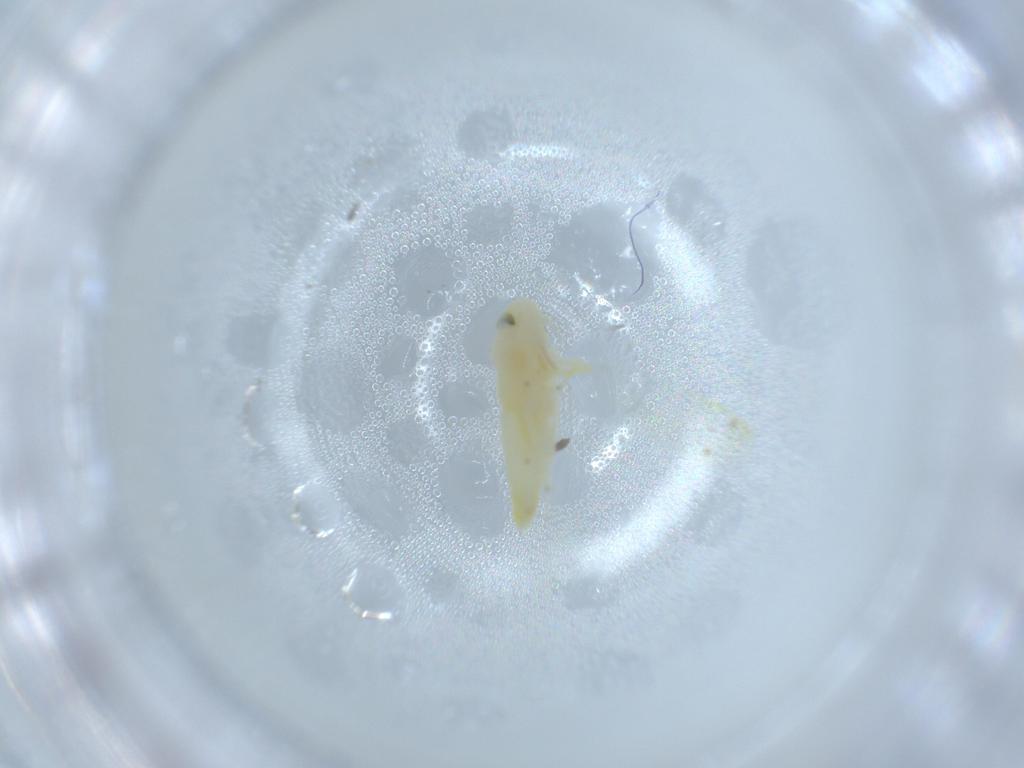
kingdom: Animalia
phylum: Arthropoda
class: Insecta
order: Hemiptera
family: Cicadellidae
